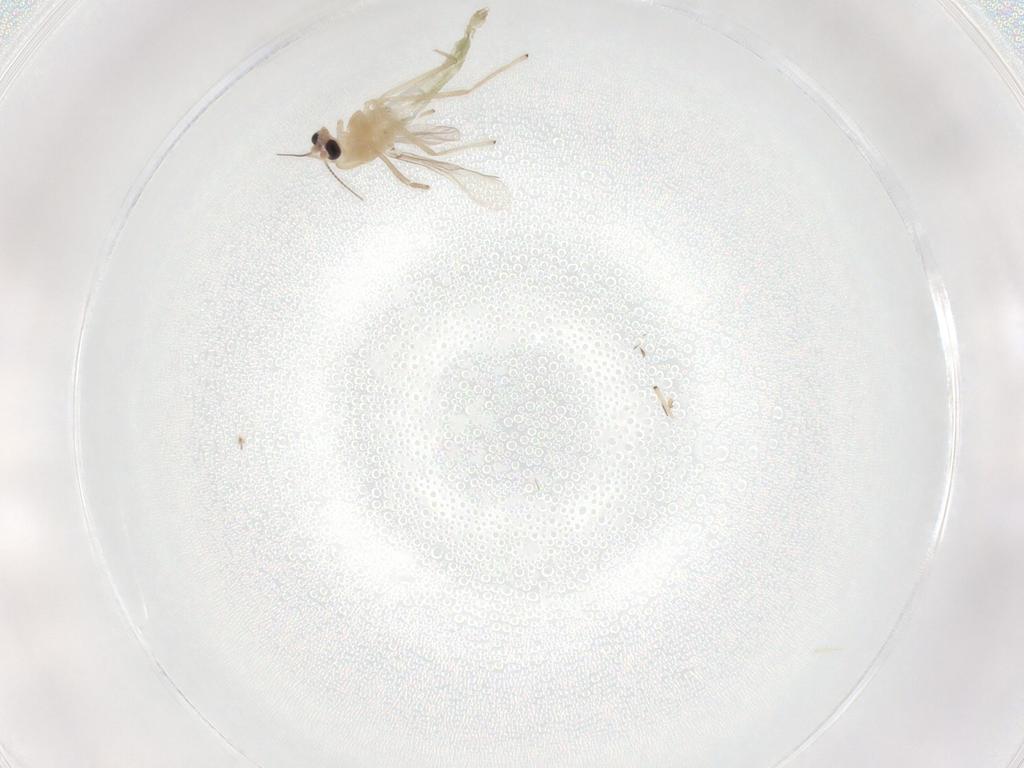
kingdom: Animalia
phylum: Arthropoda
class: Insecta
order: Diptera
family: Chironomidae
